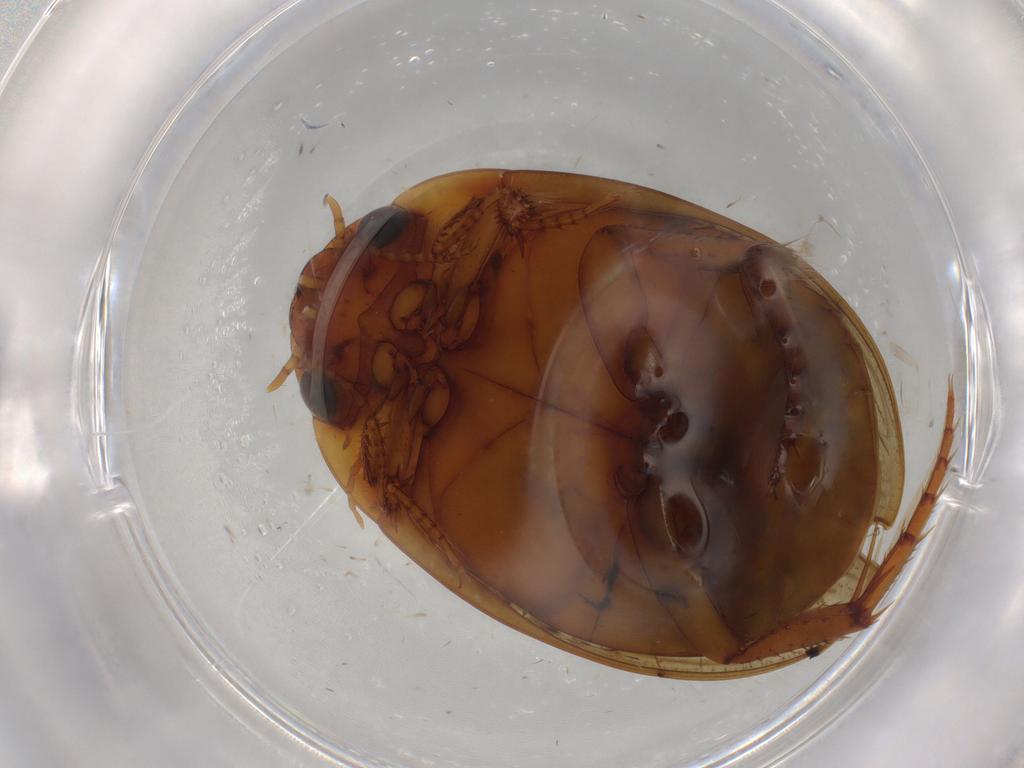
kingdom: Animalia
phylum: Arthropoda
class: Insecta
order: Coleoptera
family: Dytiscidae
